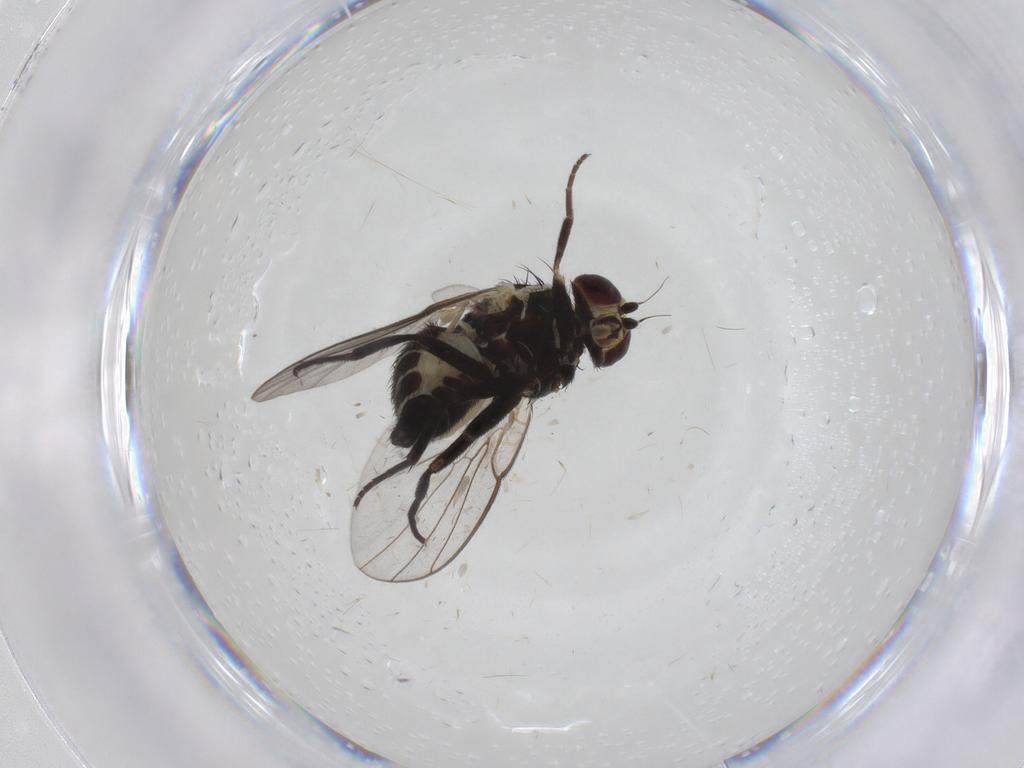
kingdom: Animalia
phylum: Arthropoda
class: Insecta
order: Diptera
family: Agromyzidae
